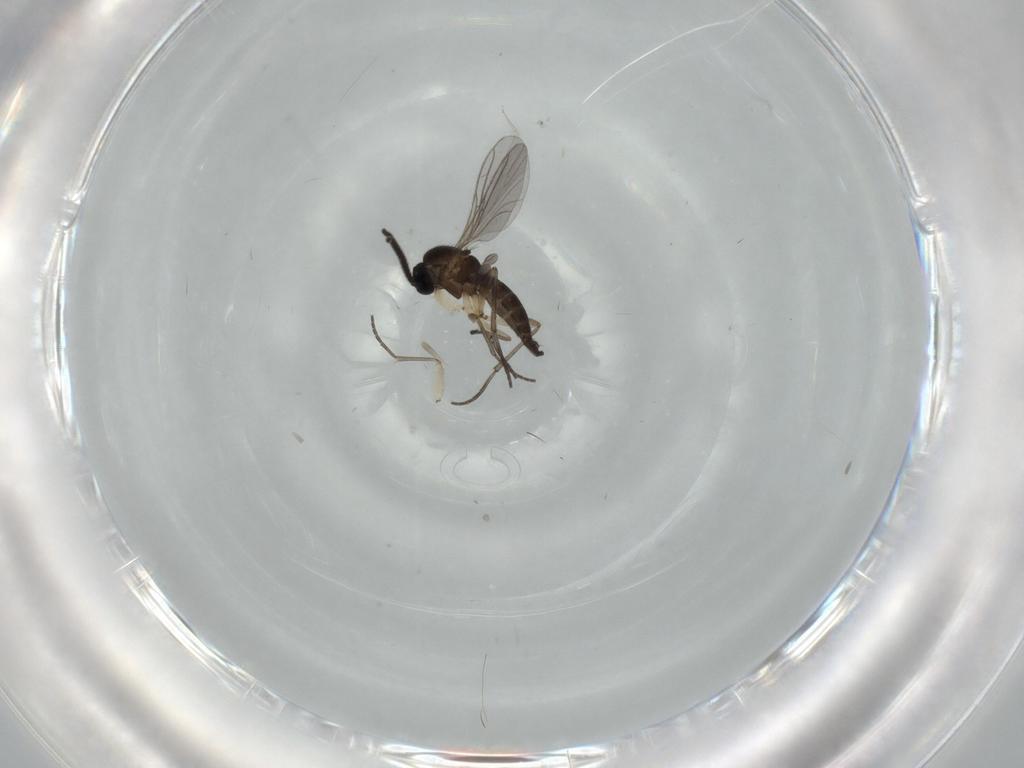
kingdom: Animalia
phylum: Arthropoda
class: Insecta
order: Diptera
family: Sciaridae
